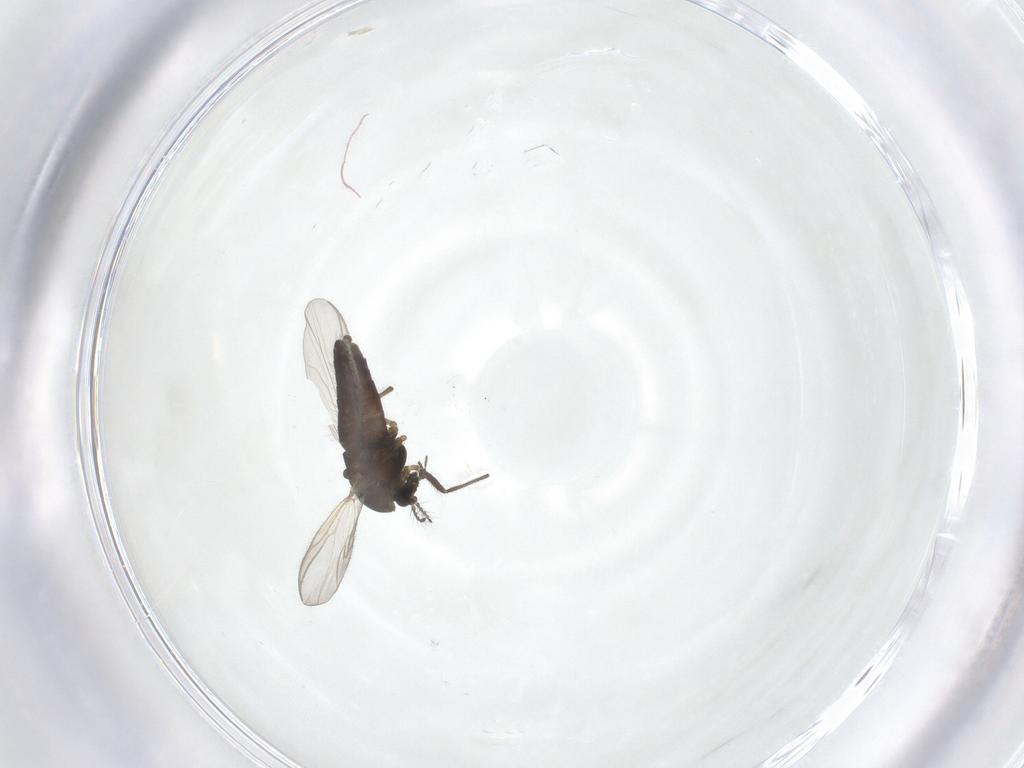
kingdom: Animalia
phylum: Arthropoda
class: Insecta
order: Diptera
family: Chironomidae
